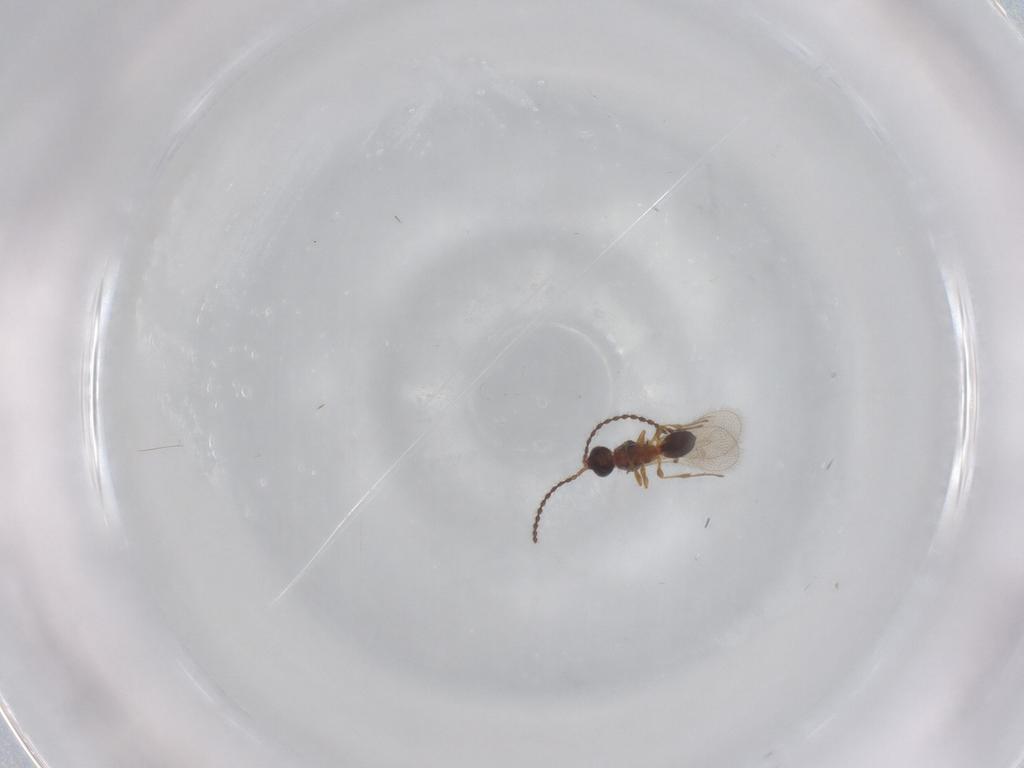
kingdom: Animalia
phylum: Arthropoda
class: Insecta
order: Hymenoptera
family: Diapriidae
